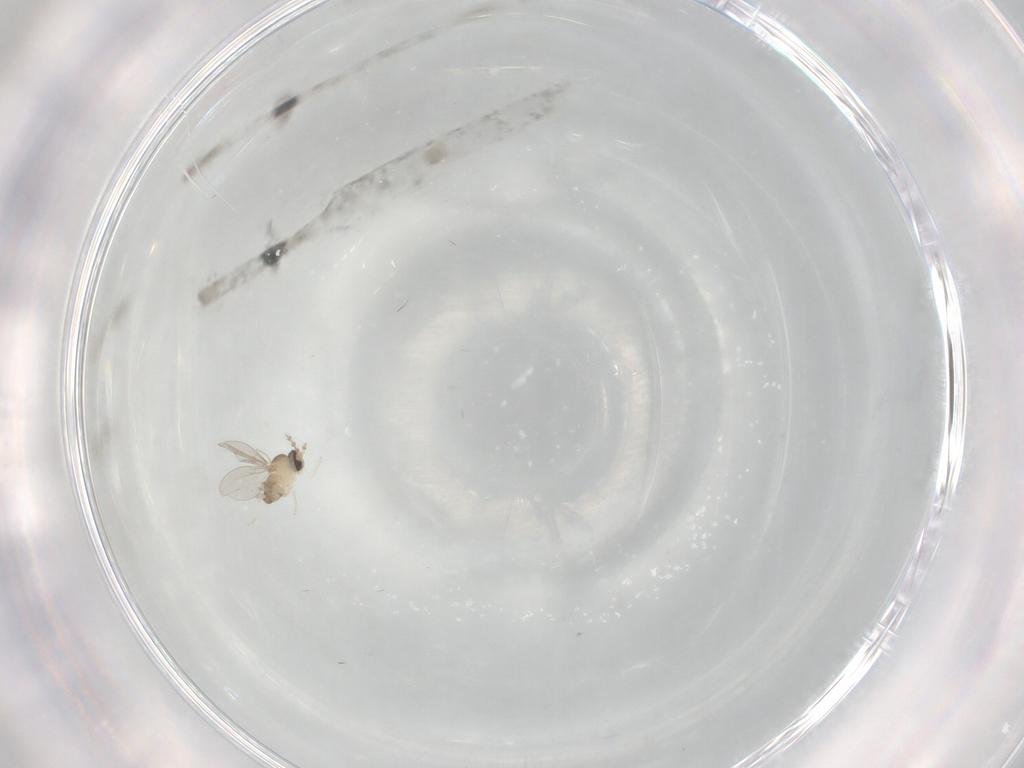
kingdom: Animalia
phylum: Arthropoda
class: Insecta
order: Diptera
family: Cecidomyiidae
